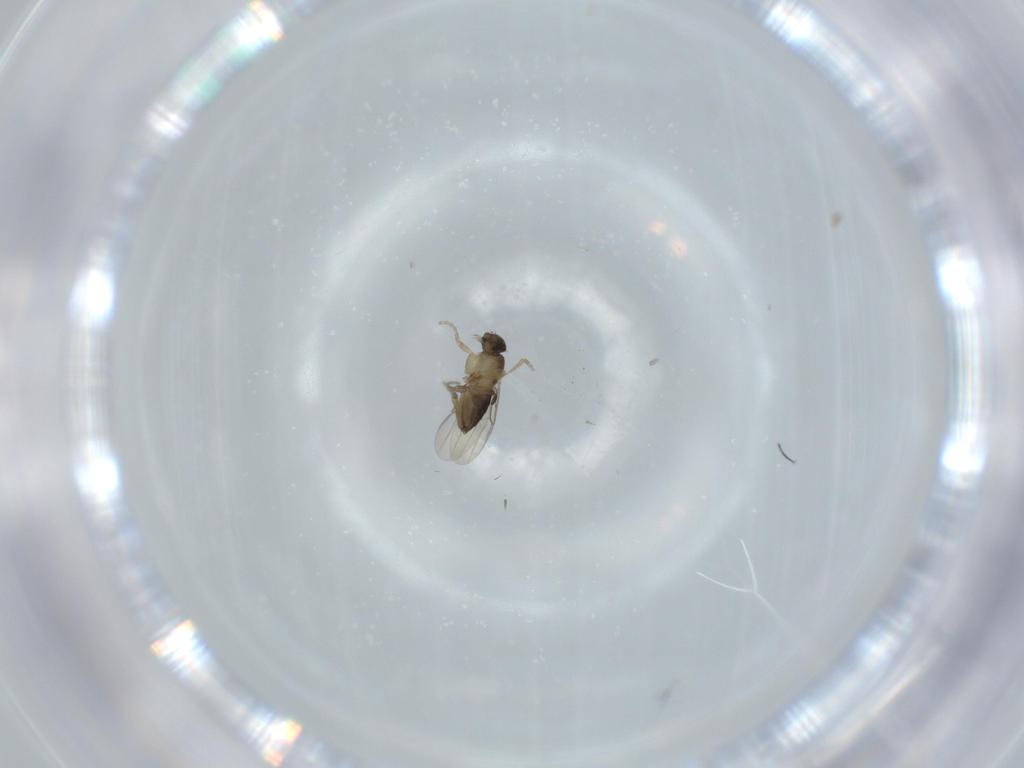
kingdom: Animalia
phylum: Arthropoda
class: Insecta
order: Diptera
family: Phoridae
